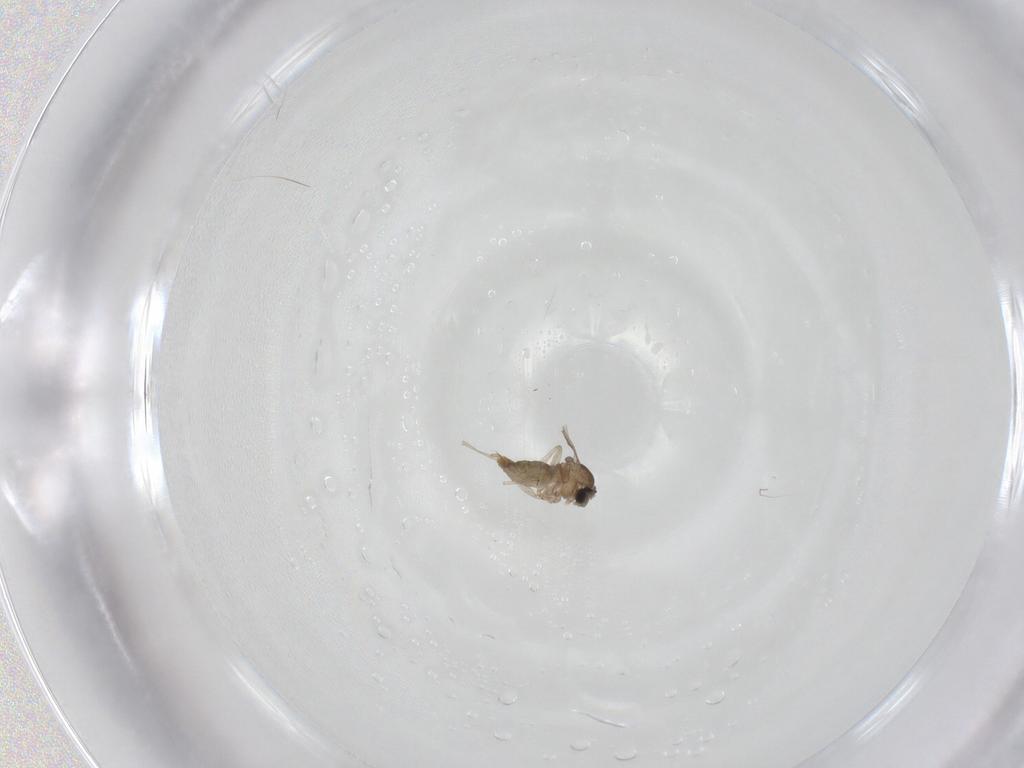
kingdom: Animalia
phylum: Arthropoda
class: Insecta
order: Diptera
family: Cecidomyiidae
